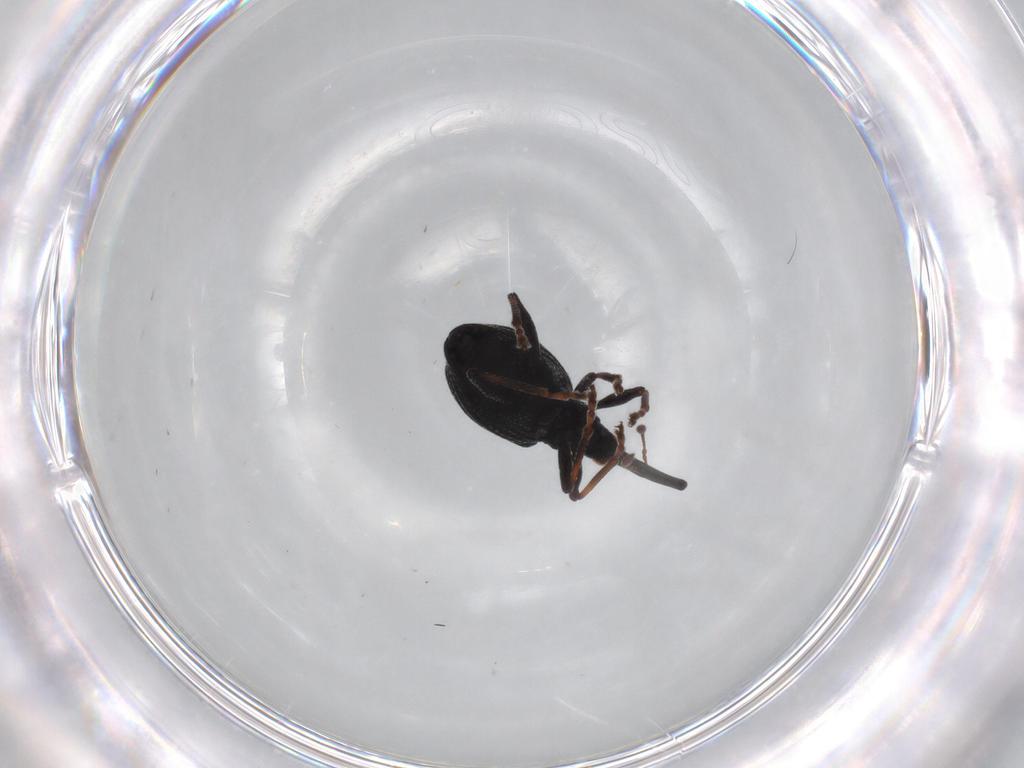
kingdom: Animalia
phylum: Arthropoda
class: Insecta
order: Coleoptera
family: Brentidae
